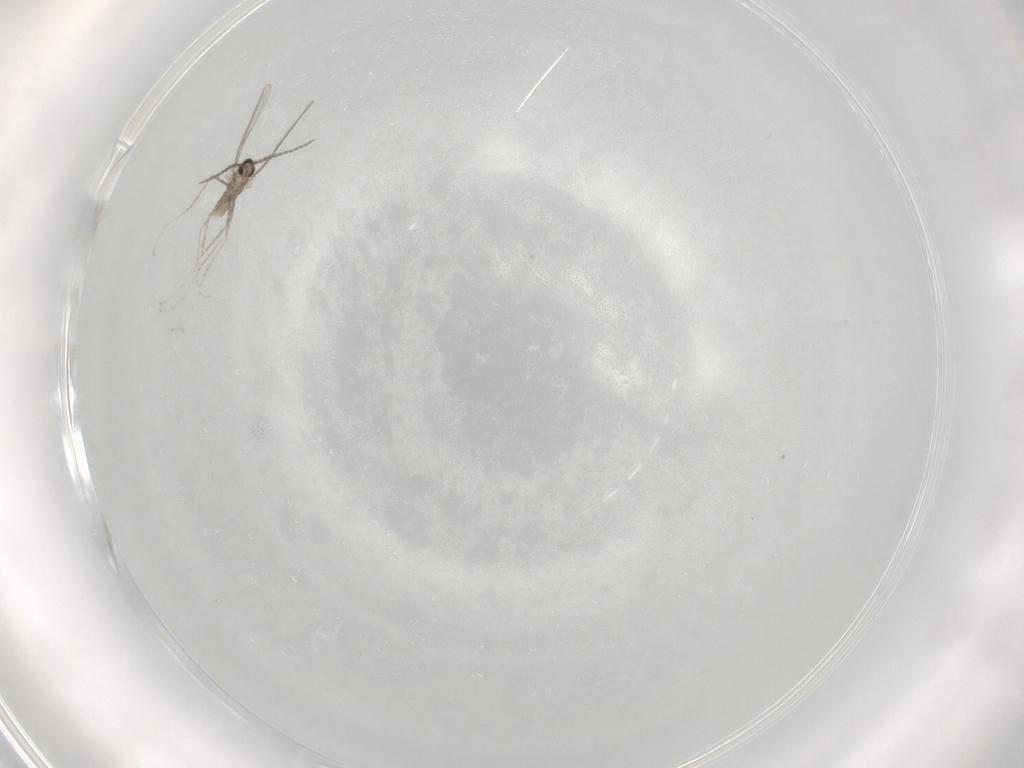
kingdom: Animalia
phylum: Arthropoda
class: Insecta
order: Diptera
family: Cecidomyiidae
